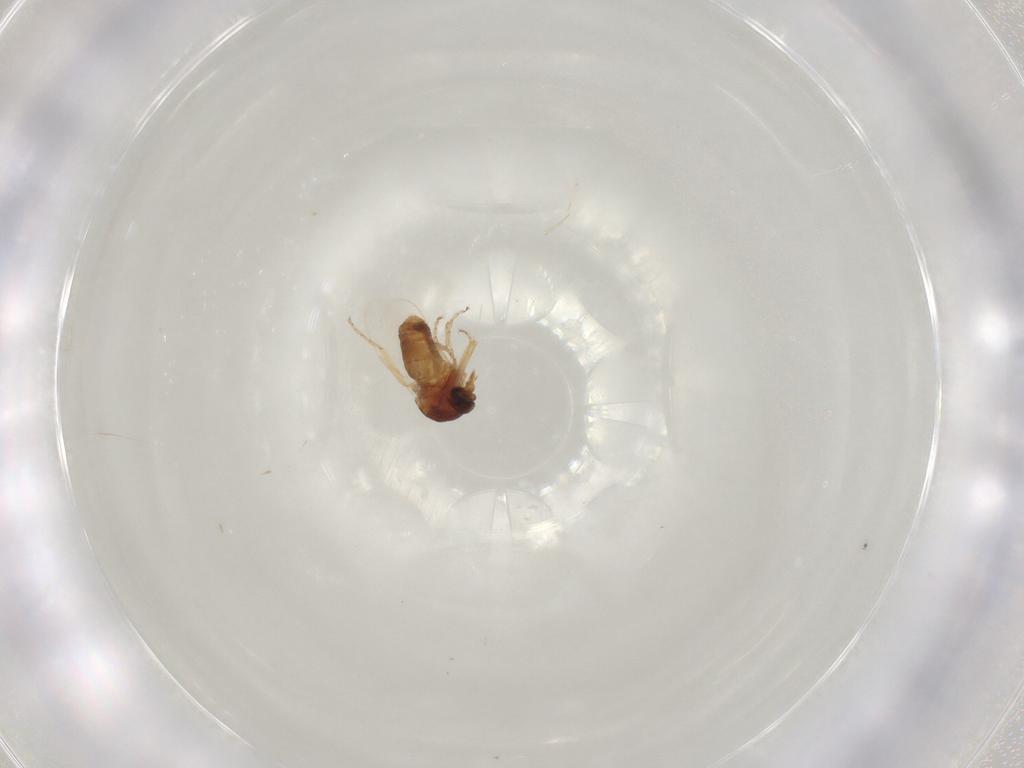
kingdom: Animalia
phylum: Arthropoda
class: Insecta
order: Diptera
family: Ceratopogonidae
